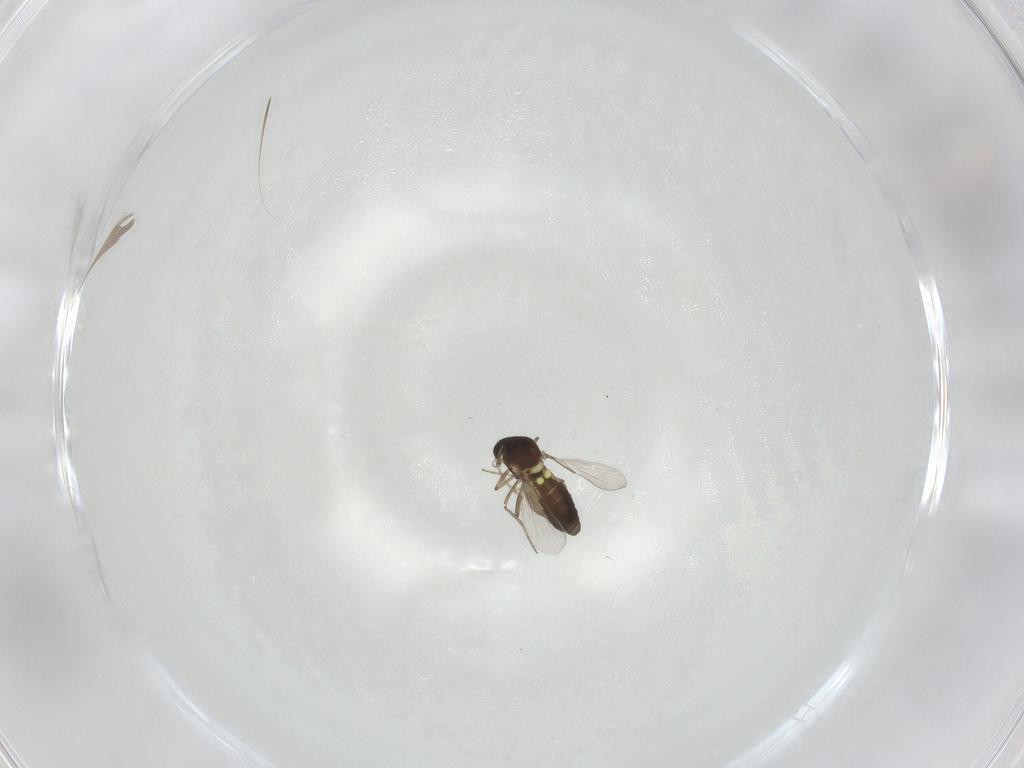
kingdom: Animalia
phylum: Arthropoda
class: Insecta
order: Diptera
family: Ceratopogonidae
